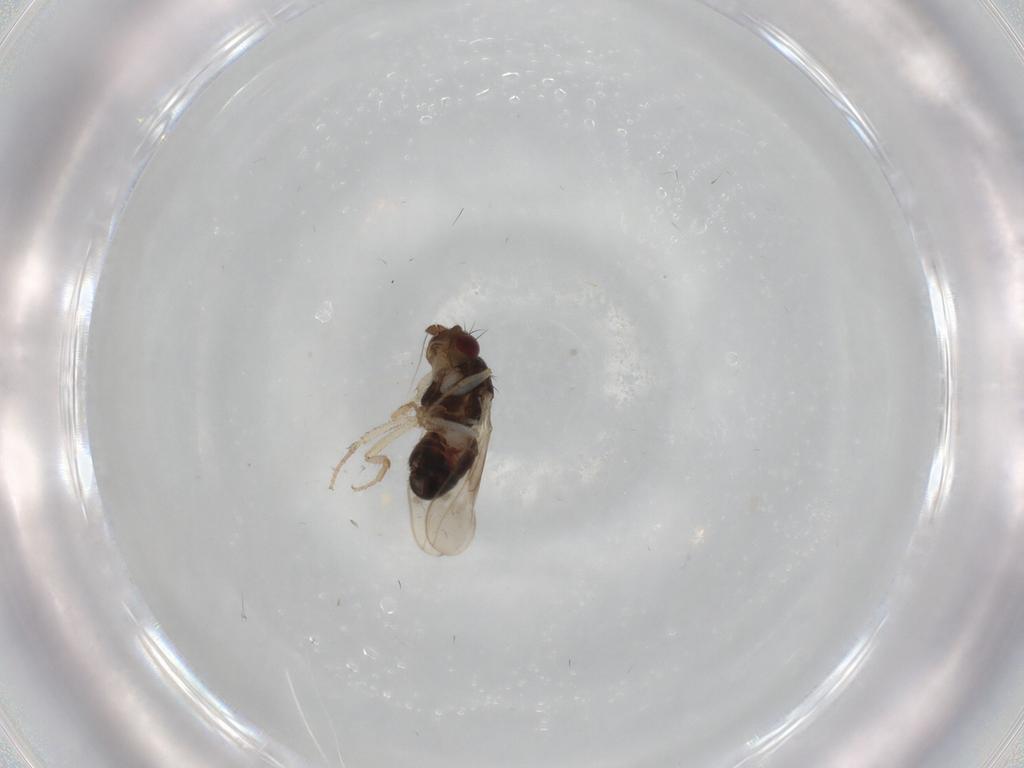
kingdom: Animalia
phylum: Arthropoda
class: Insecta
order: Diptera
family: Sphaeroceridae
